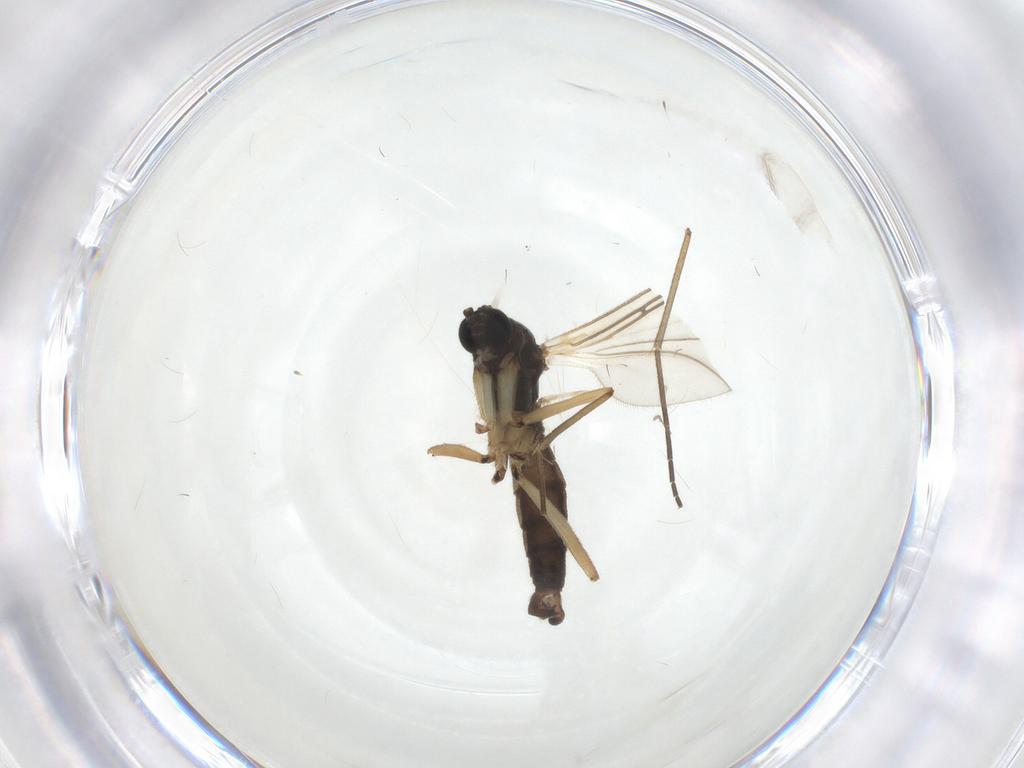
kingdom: Animalia
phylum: Arthropoda
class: Insecta
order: Diptera
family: Sciaridae
